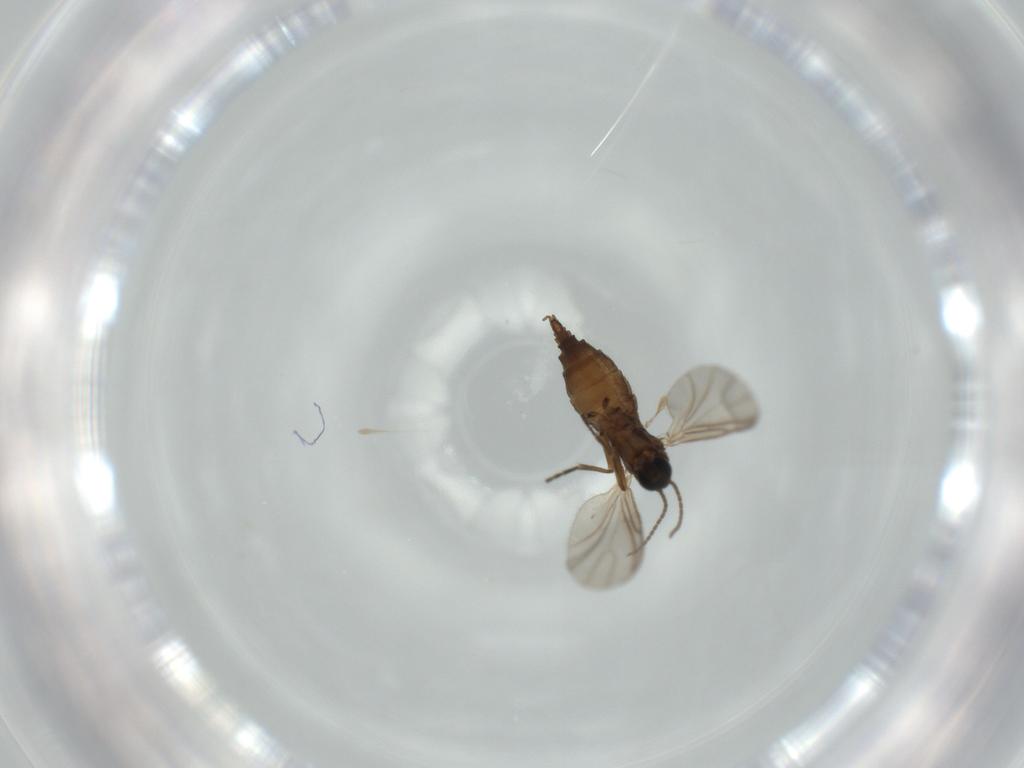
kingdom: Animalia
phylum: Arthropoda
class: Insecta
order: Diptera
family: Sciaridae
